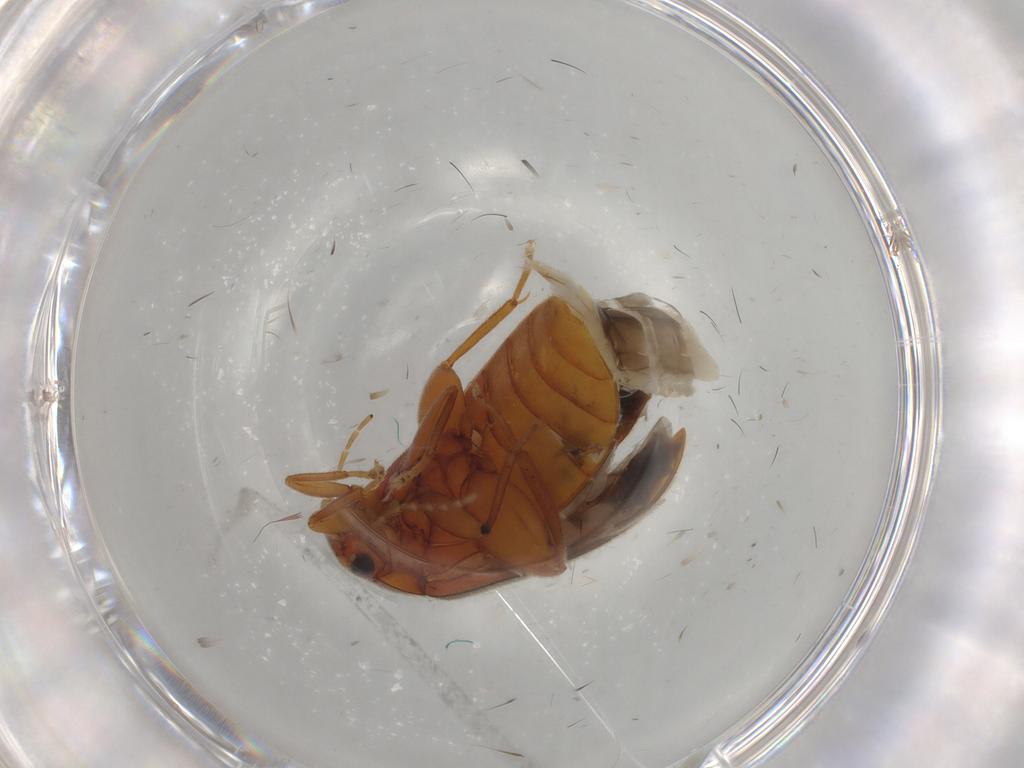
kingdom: Animalia
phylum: Arthropoda
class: Insecta
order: Coleoptera
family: Scirtidae
